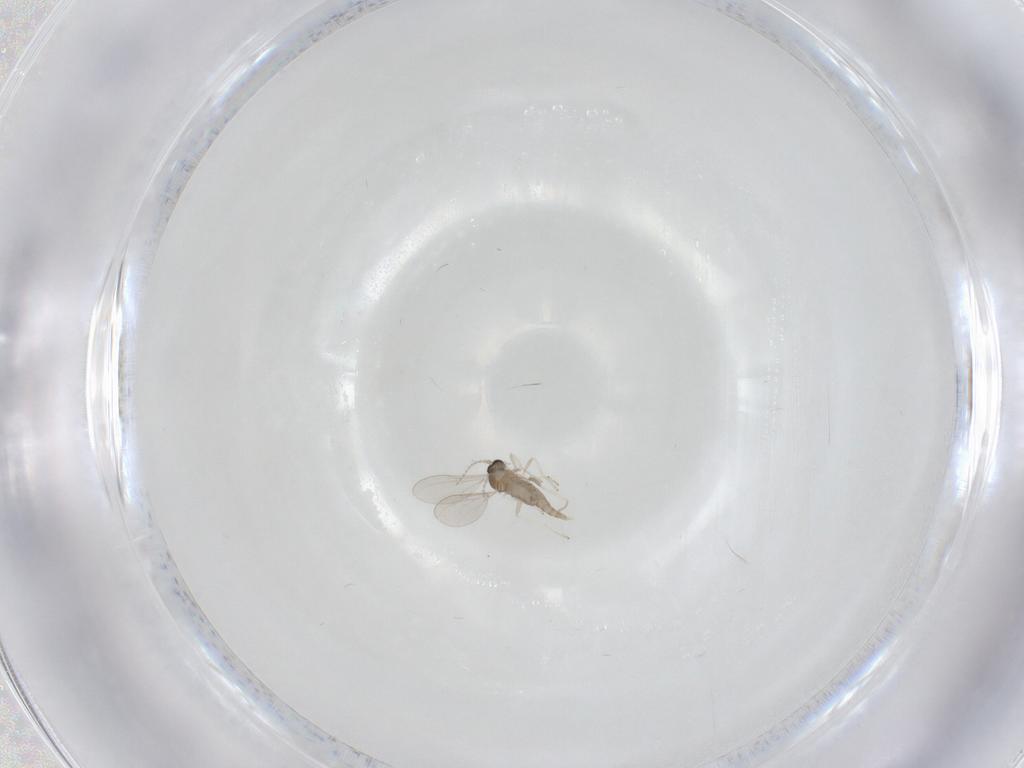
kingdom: Animalia
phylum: Arthropoda
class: Insecta
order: Diptera
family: Cecidomyiidae
